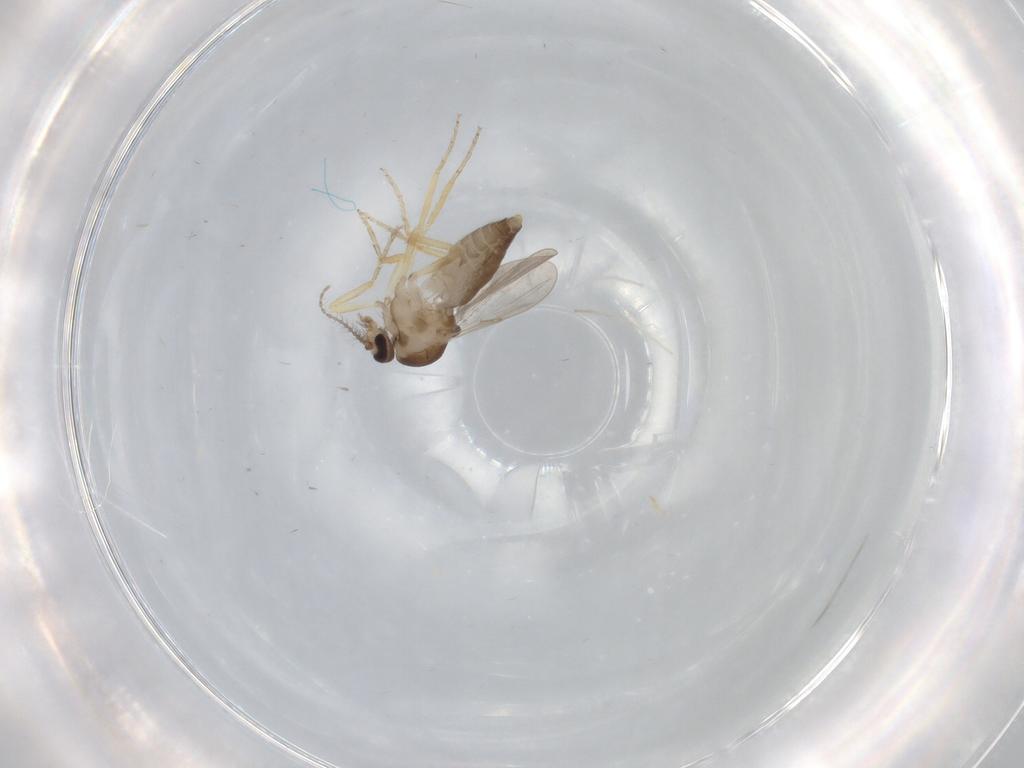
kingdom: Animalia
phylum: Arthropoda
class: Insecta
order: Diptera
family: Ceratopogonidae
